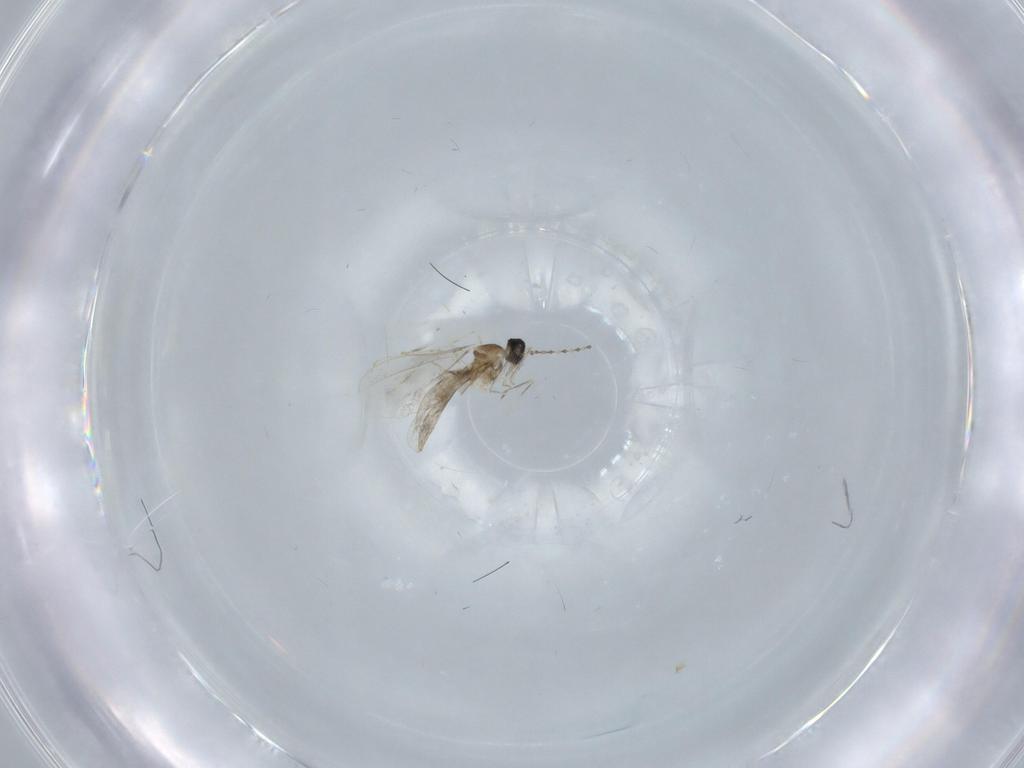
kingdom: Animalia
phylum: Arthropoda
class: Insecta
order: Diptera
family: Cecidomyiidae
